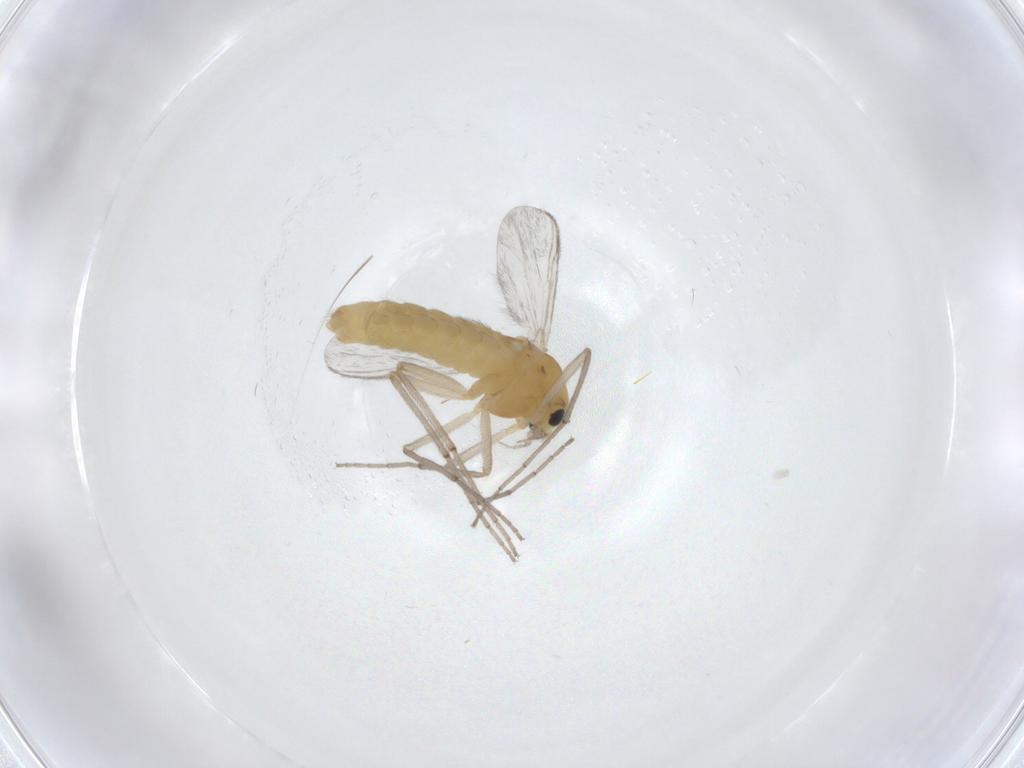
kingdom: Animalia
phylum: Arthropoda
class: Insecta
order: Diptera
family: Chironomidae
